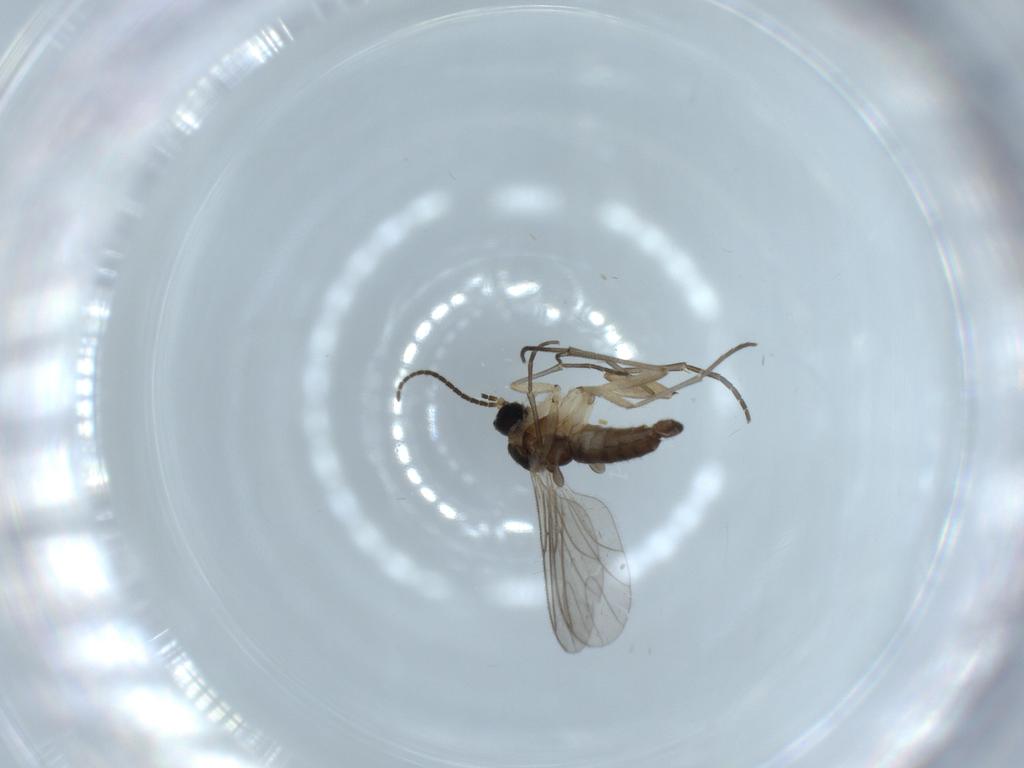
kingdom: Animalia
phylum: Arthropoda
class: Insecta
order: Diptera
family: Sciaridae
